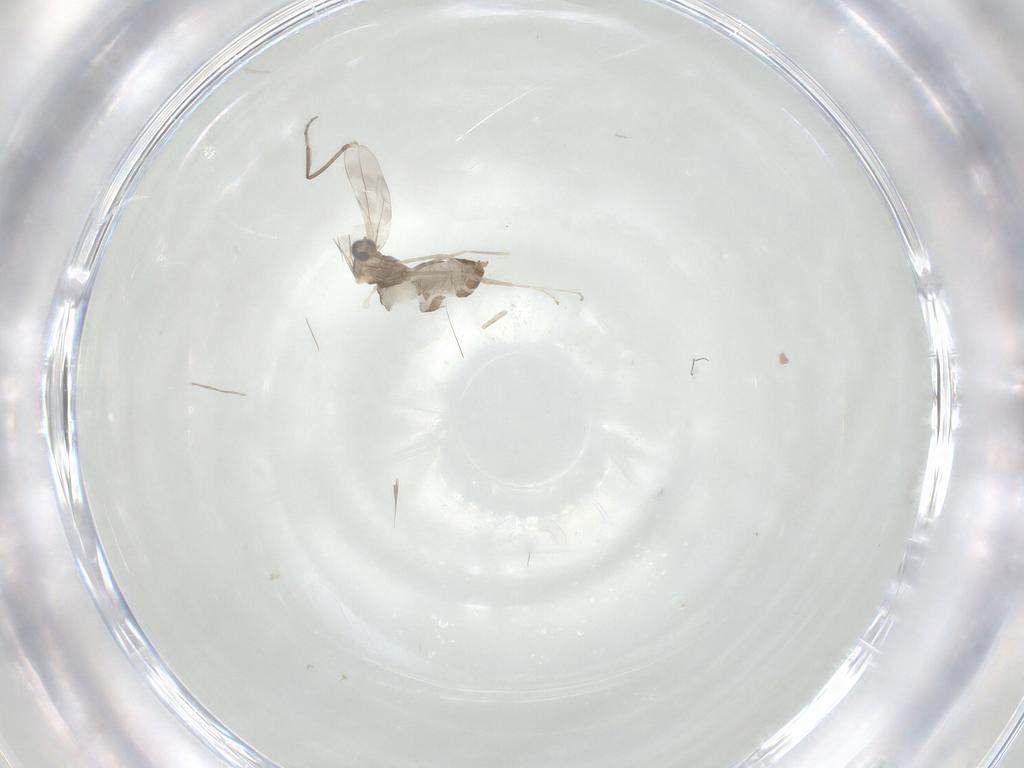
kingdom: Animalia
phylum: Arthropoda
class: Insecta
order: Diptera
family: Cecidomyiidae
